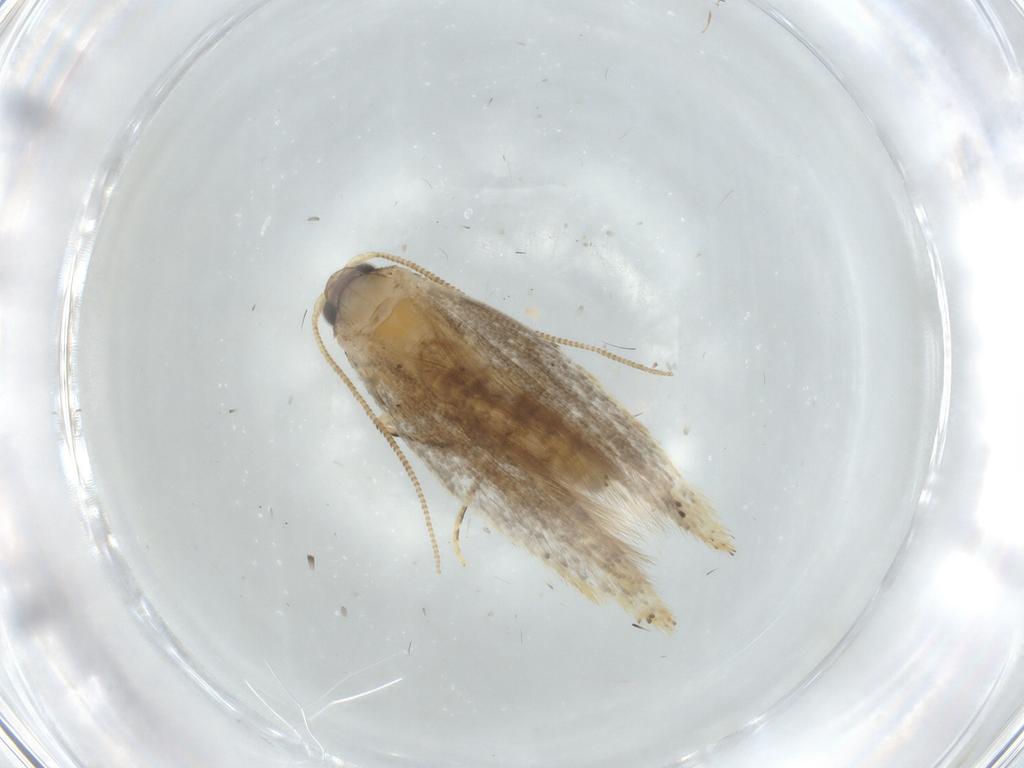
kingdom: Animalia
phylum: Arthropoda
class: Insecta
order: Lepidoptera
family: Tineidae
